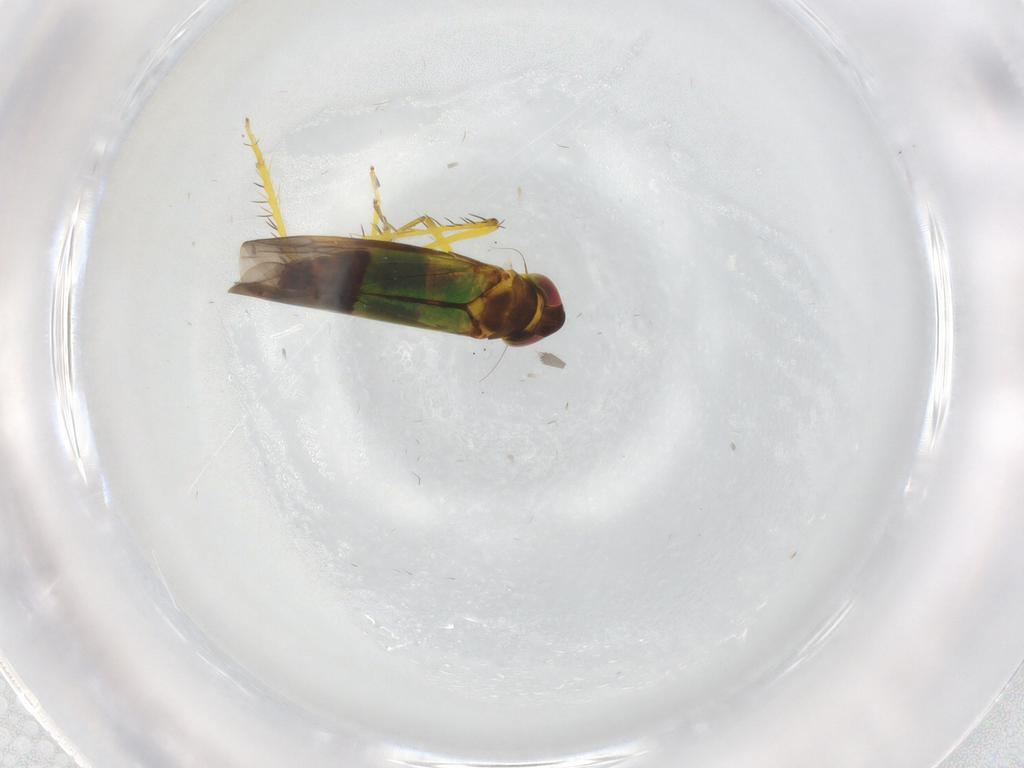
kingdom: Animalia
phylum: Arthropoda
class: Insecta
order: Hemiptera
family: Cicadellidae
